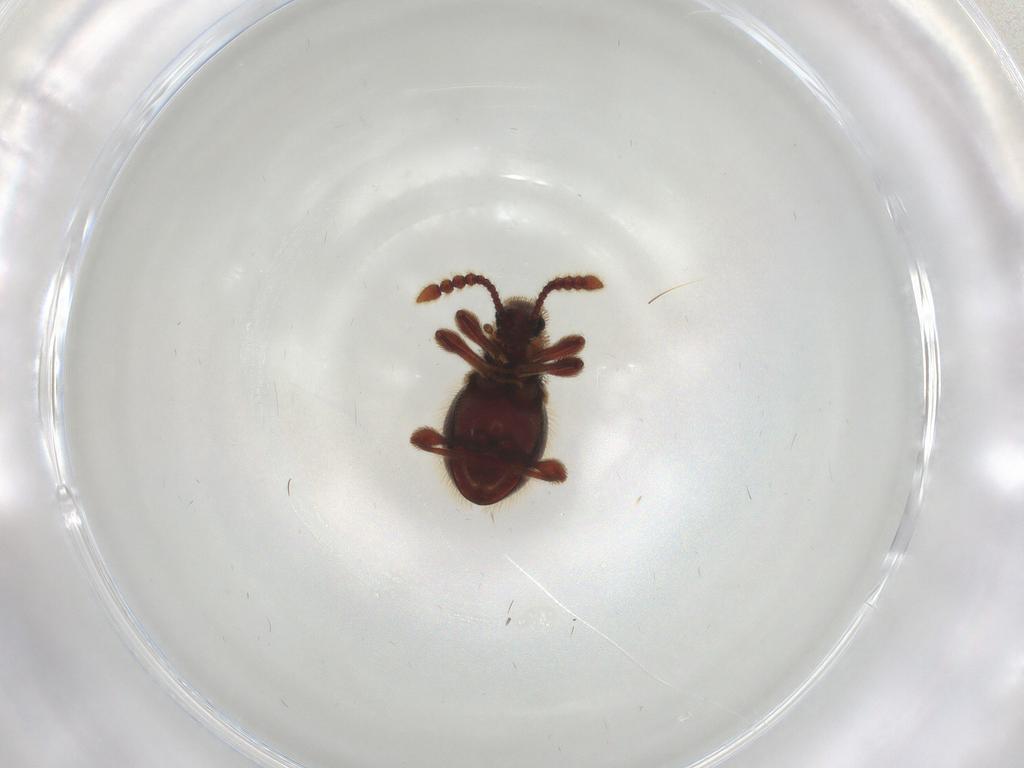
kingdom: Animalia
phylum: Arthropoda
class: Insecta
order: Coleoptera
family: Staphylinidae
